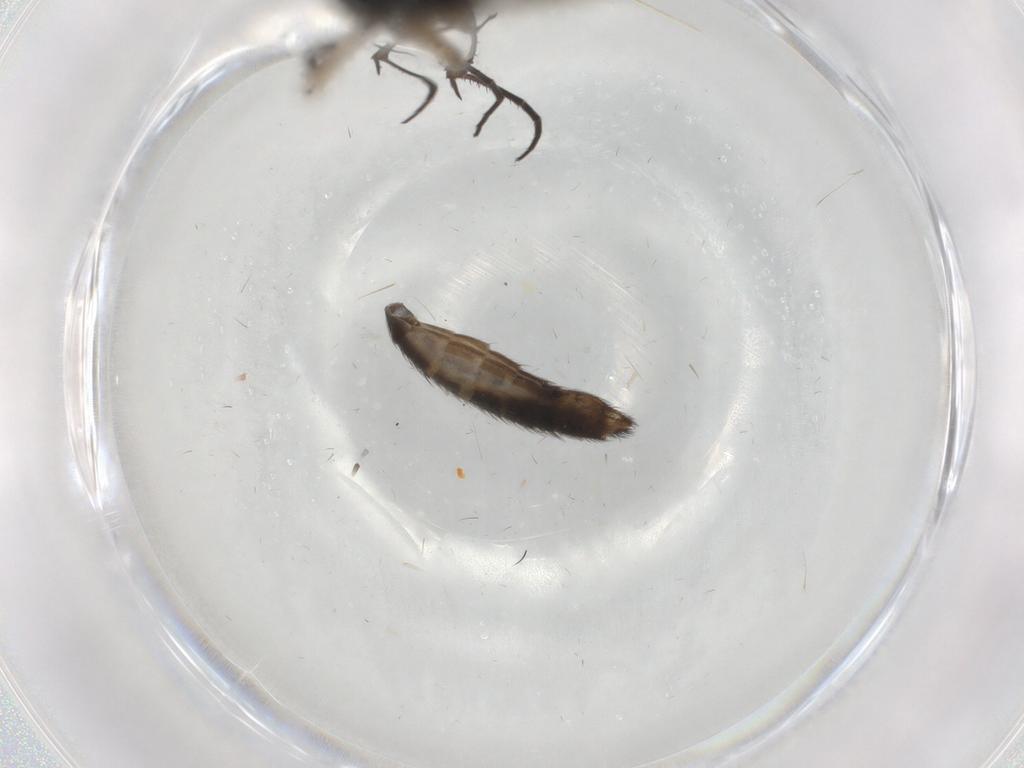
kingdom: Animalia
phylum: Arthropoda
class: Insecta
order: Diptera
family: Sciaridae
